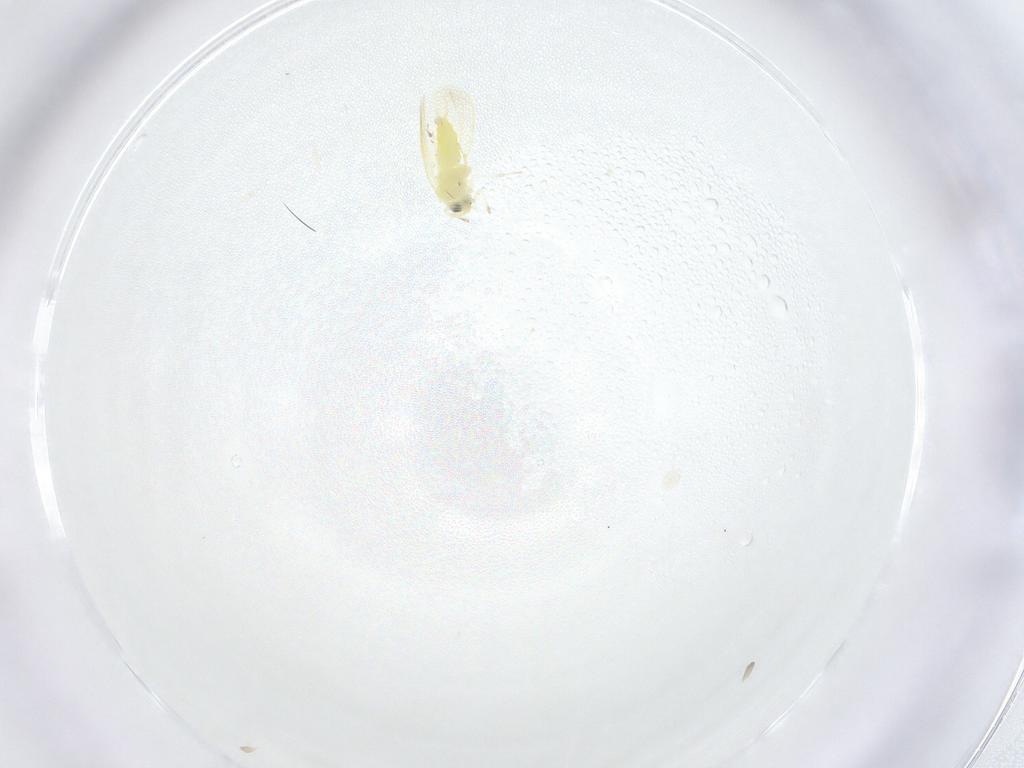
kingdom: Animalia
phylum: Arthropoda
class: Insecta
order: Hemiptera
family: Aleyrodidae
